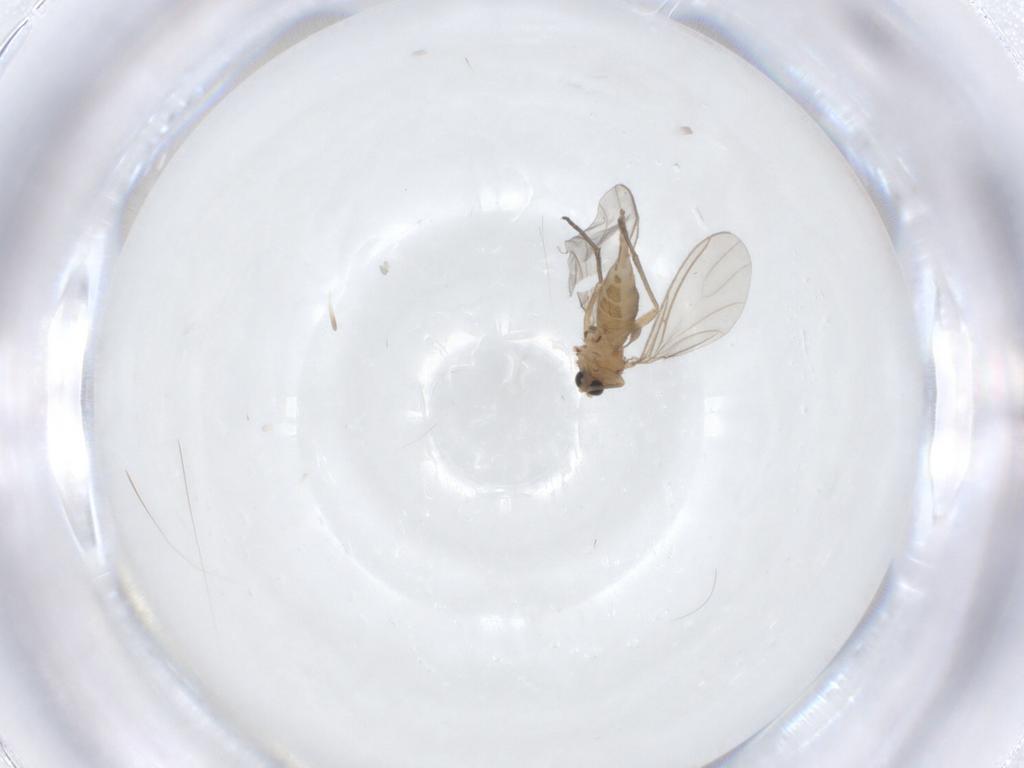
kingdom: Animalia
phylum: Arthropoda
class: Insecta
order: Diptera
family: Sciaridae
